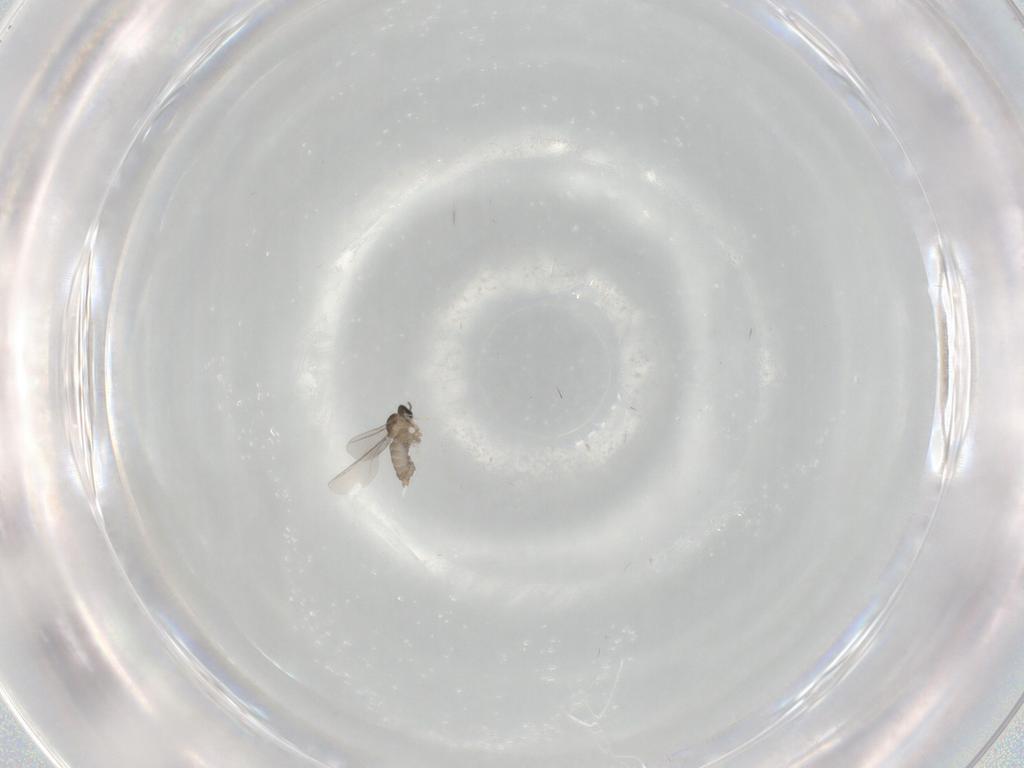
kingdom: Animalia
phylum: Arthropoda
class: Insecta
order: Diptera
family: Cecidomyiidae
